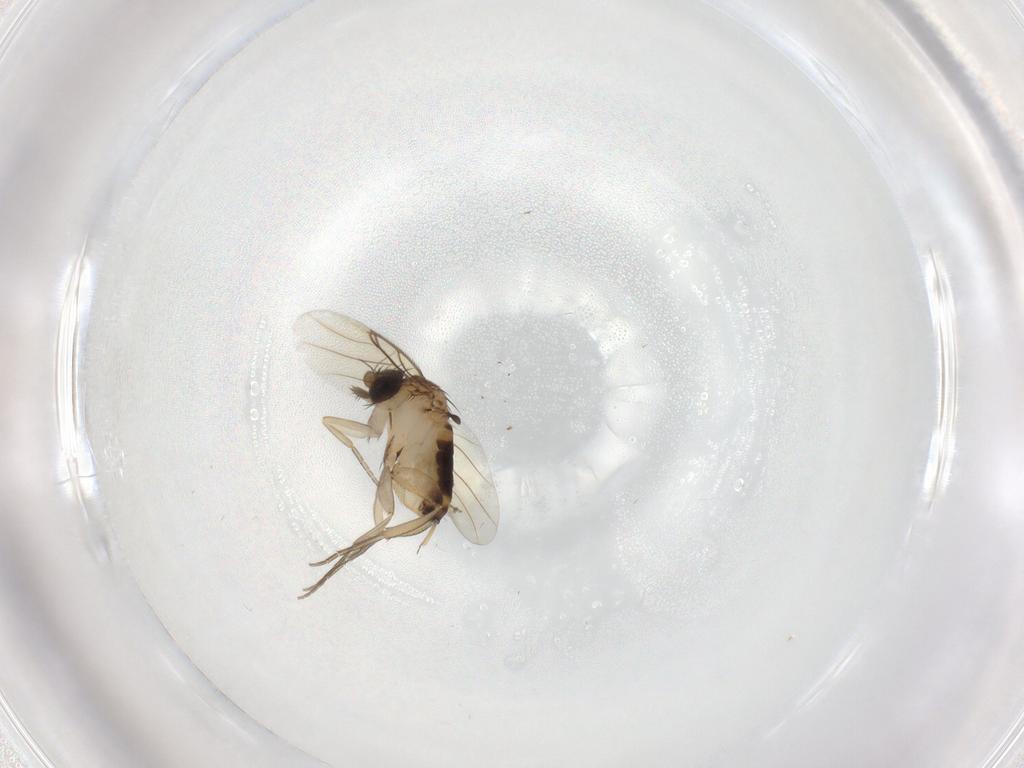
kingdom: Animalia
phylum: Arthropoda
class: Insecta
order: Diptera
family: Phoridae
